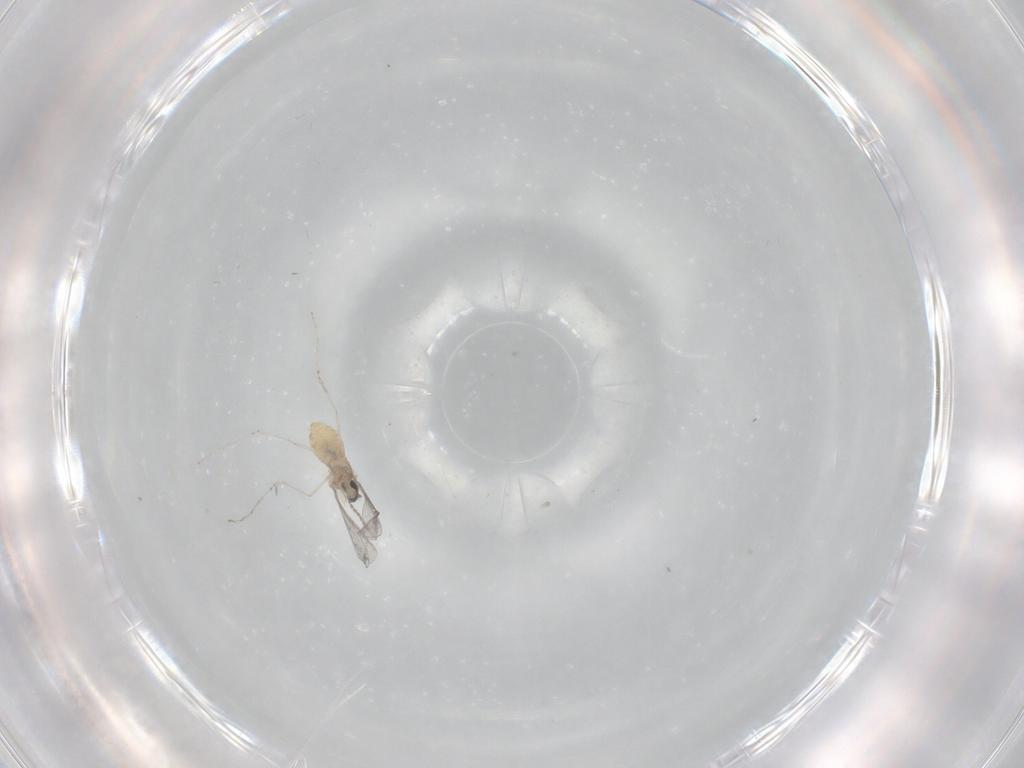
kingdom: Animalia
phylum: Arthropoda
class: Insecta
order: Diptera
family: Cecidomyiidae
